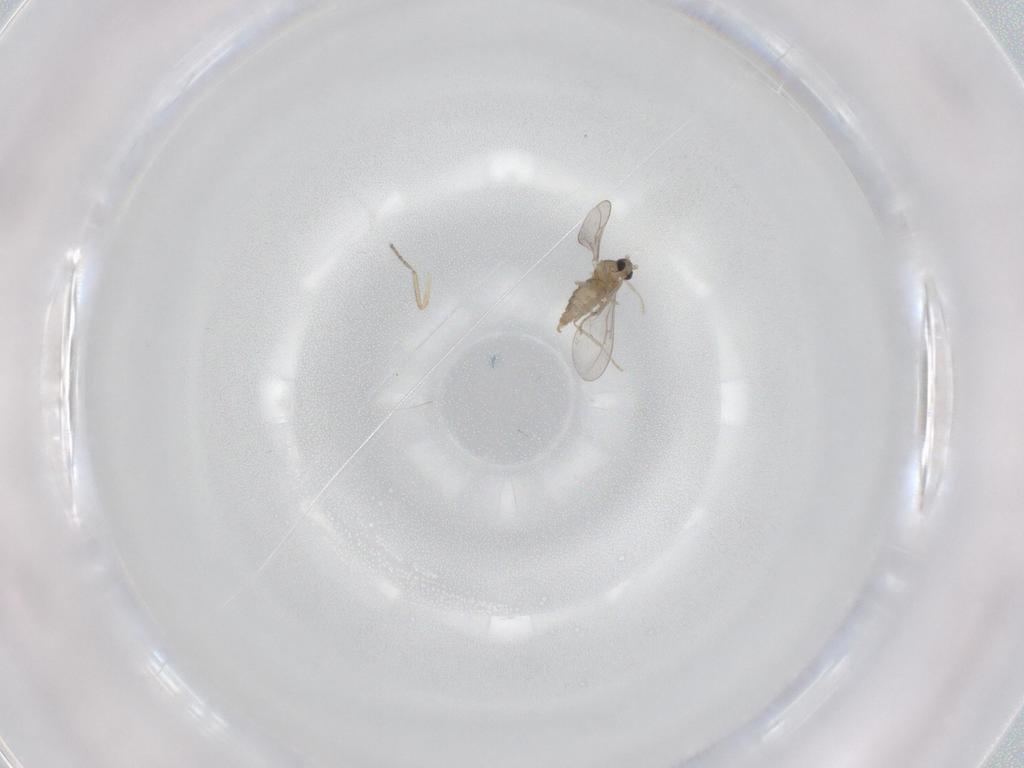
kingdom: Animalia
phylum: Arthropoda
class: Insecta
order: Diptera
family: Cecidomyiidae
